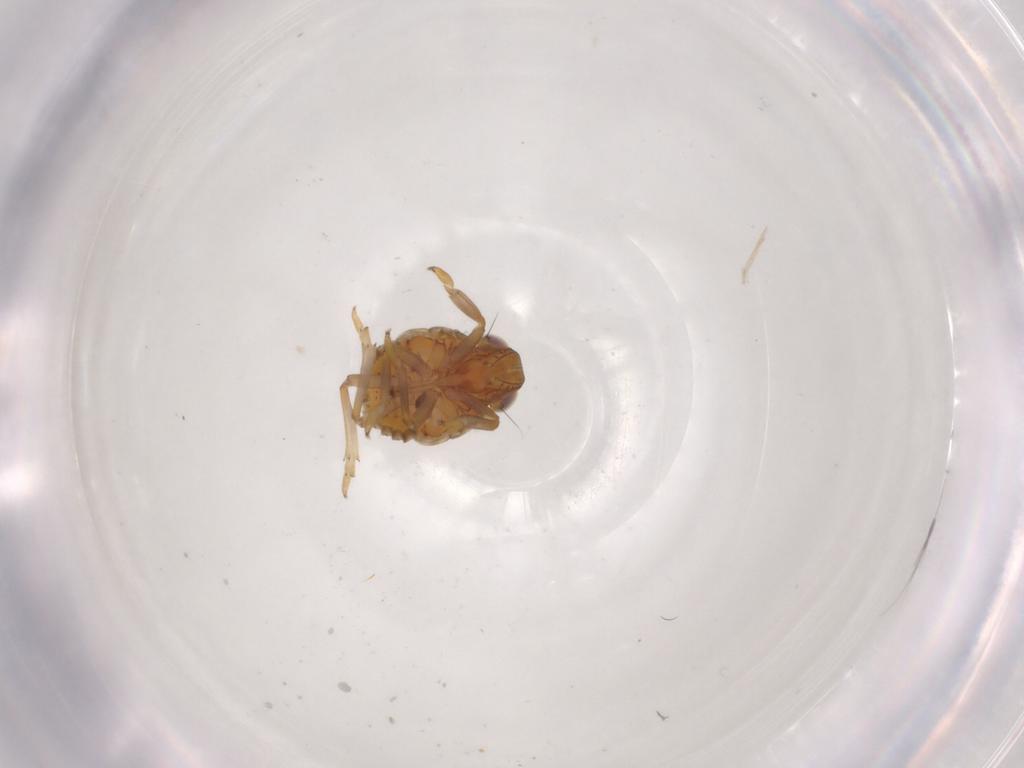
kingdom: Animalia
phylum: Arthropoda
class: Insecta
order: Hemiptera
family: Issidae
